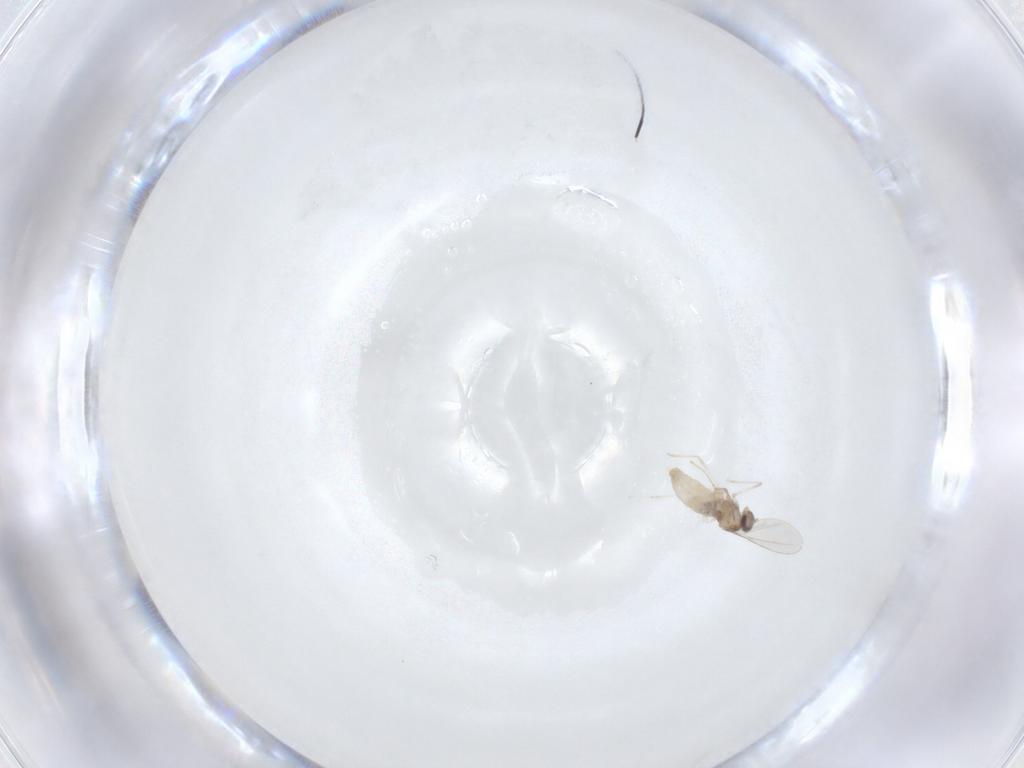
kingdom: Animalia
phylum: Arthropoda
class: Insecta
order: Diptera
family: Cecidomyiidae
